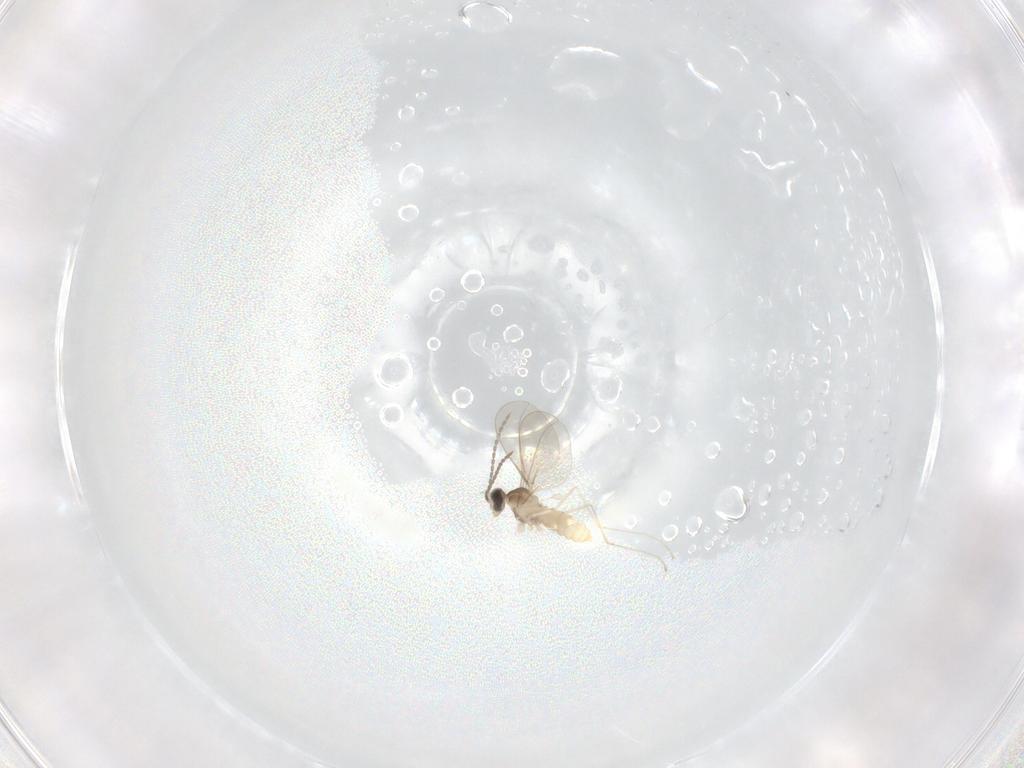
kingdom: Animalia
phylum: Arthropoda
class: Insecta
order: Diptera
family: Cecidomyiidae
